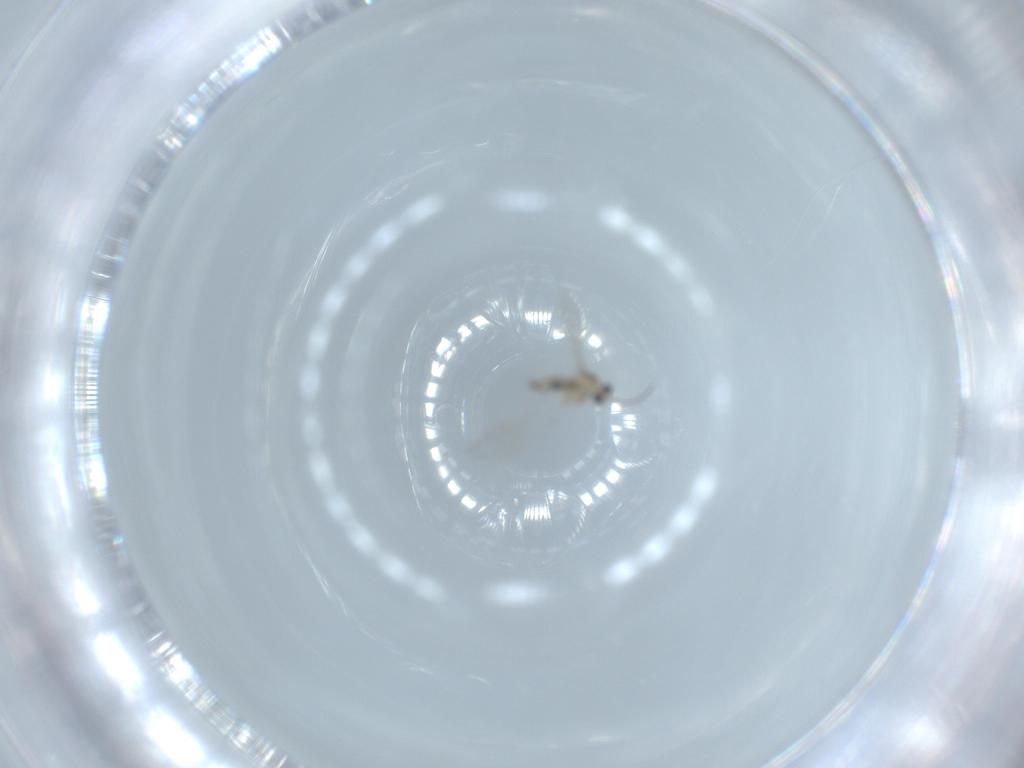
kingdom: Animalia
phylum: Arthropoda
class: Insecta
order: Diptera
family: Cecidomyiidae
